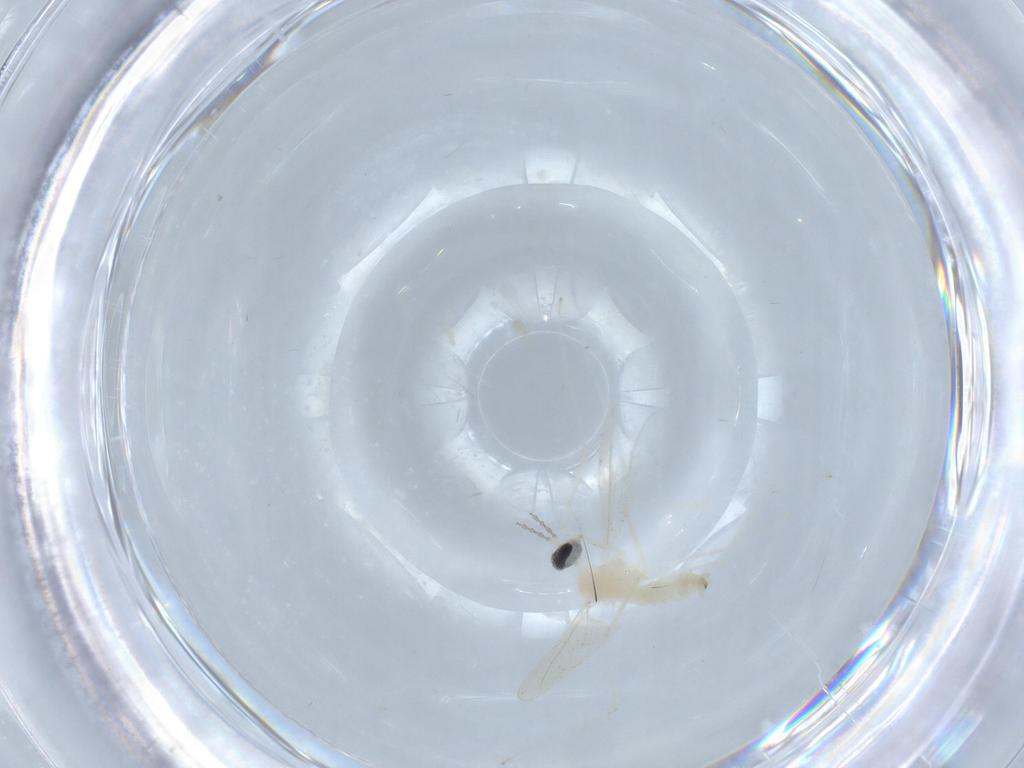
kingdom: Animalia
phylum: Arthropoda
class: Insecta
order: Diptera
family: Cecidomyiidae
